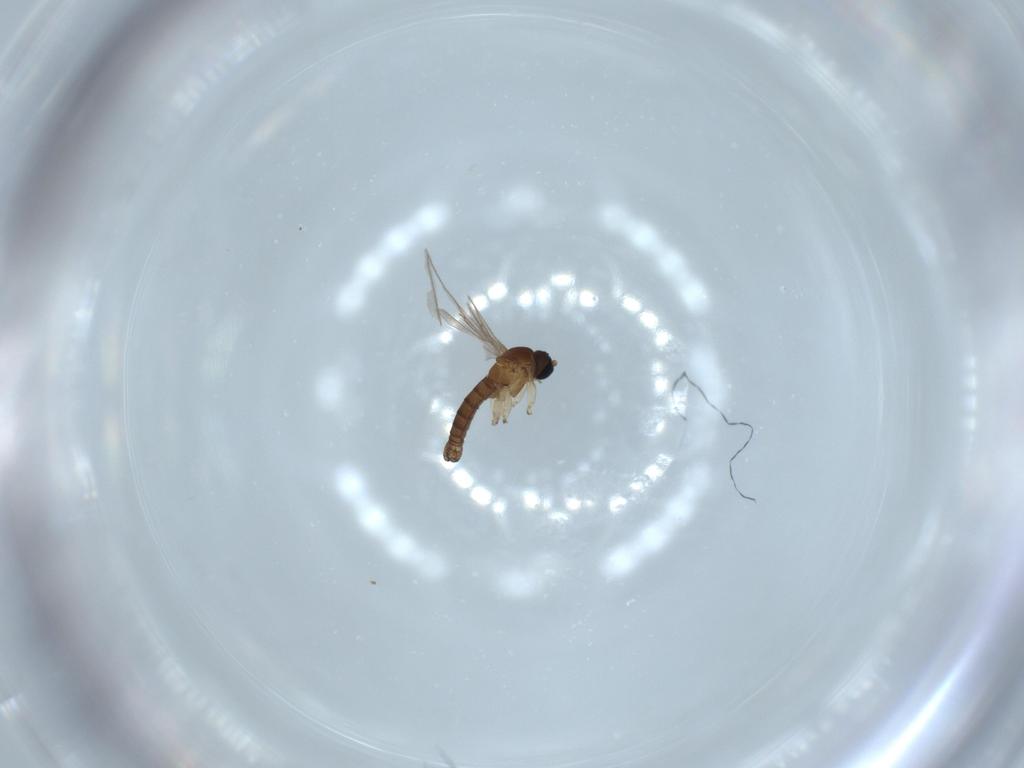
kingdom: Animalia
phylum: Arthropoda
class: Insecta
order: Diptera
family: Sciaridae
